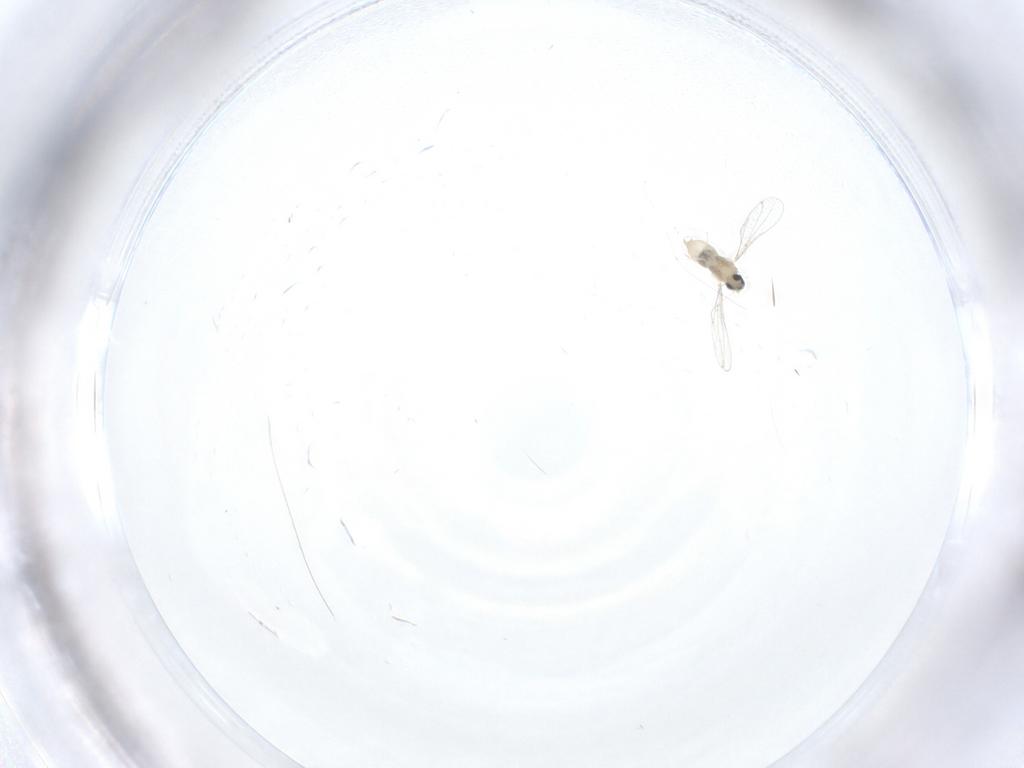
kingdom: Animalia
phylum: Arthropoda
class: Insecta
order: Diptera
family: Cecidomyiidae
